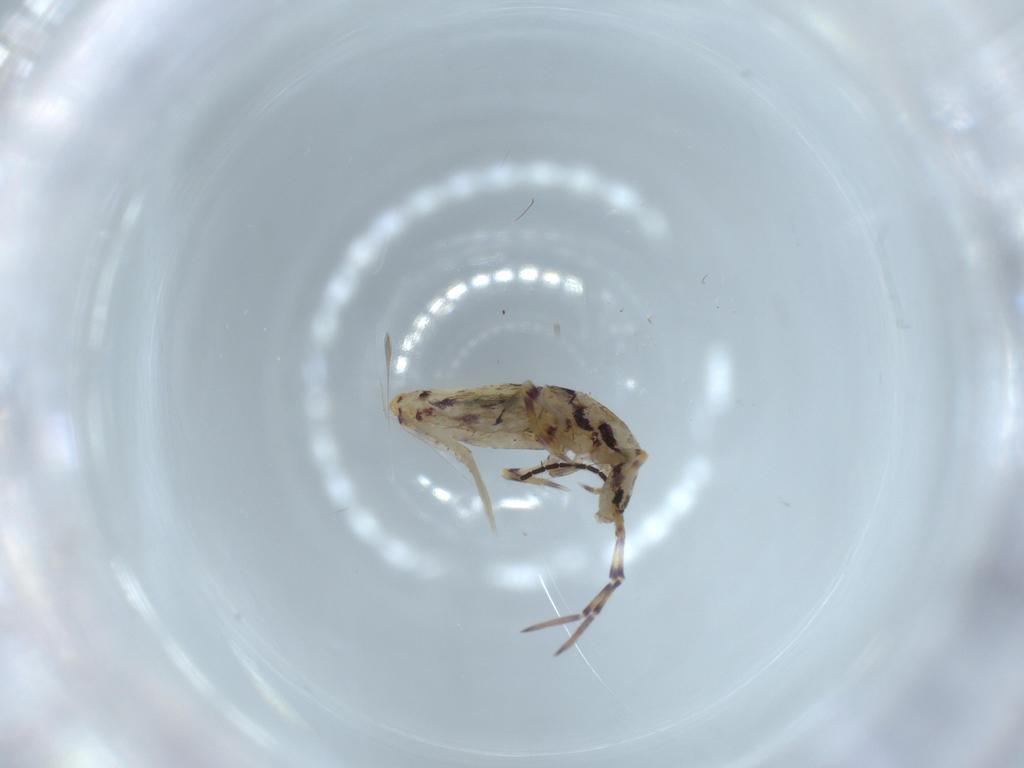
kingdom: Animalia
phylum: Arthropoda
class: Collembola
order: Entomobryomorpha
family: Entomobryidae
